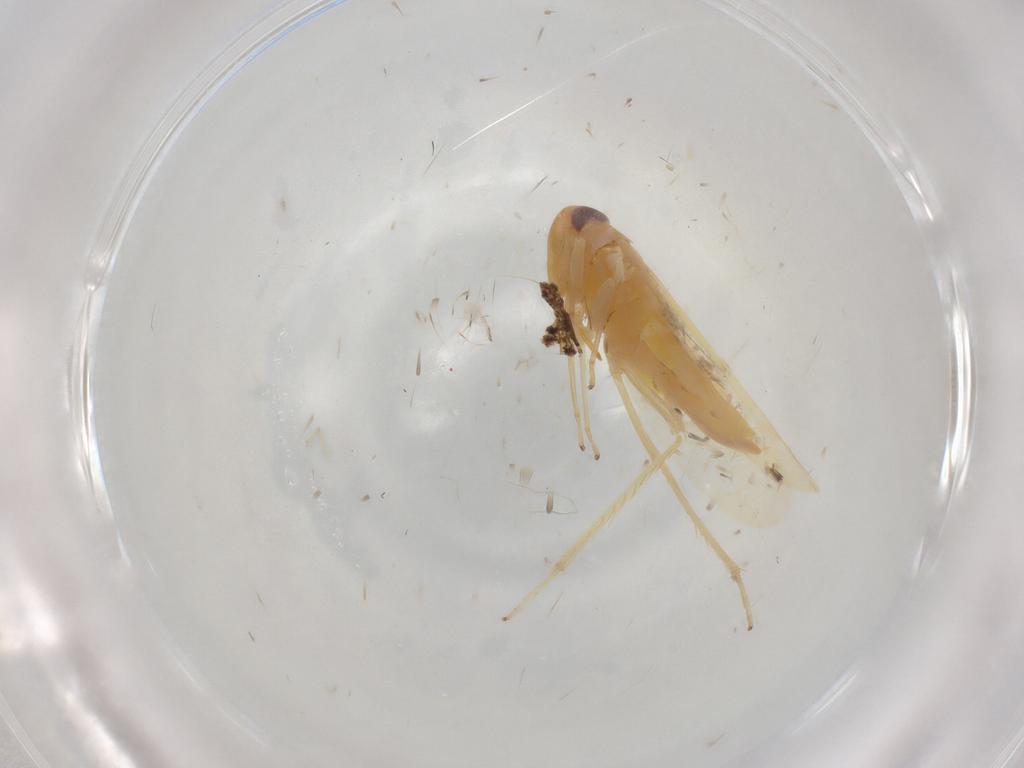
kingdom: Animalia
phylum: Arthropoda
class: Insecta
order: Hemiptera
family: Cicadellidae
